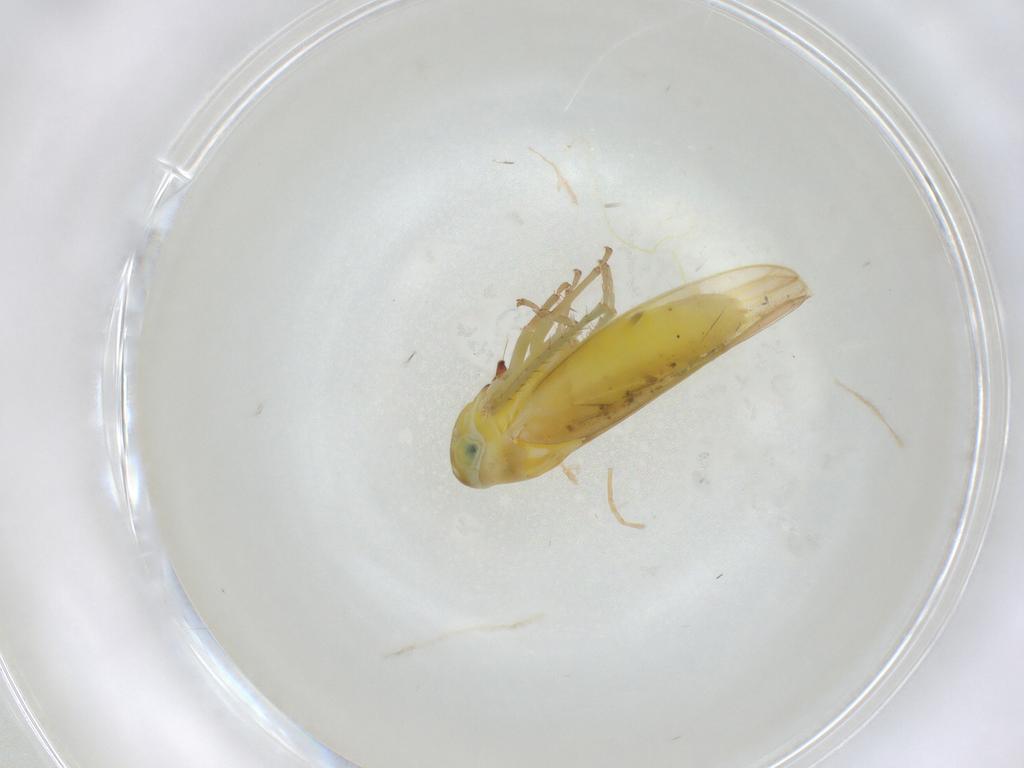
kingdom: Animalia
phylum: Arthropoda
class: Insecta
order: Hemiptera
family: Cicadellidae
